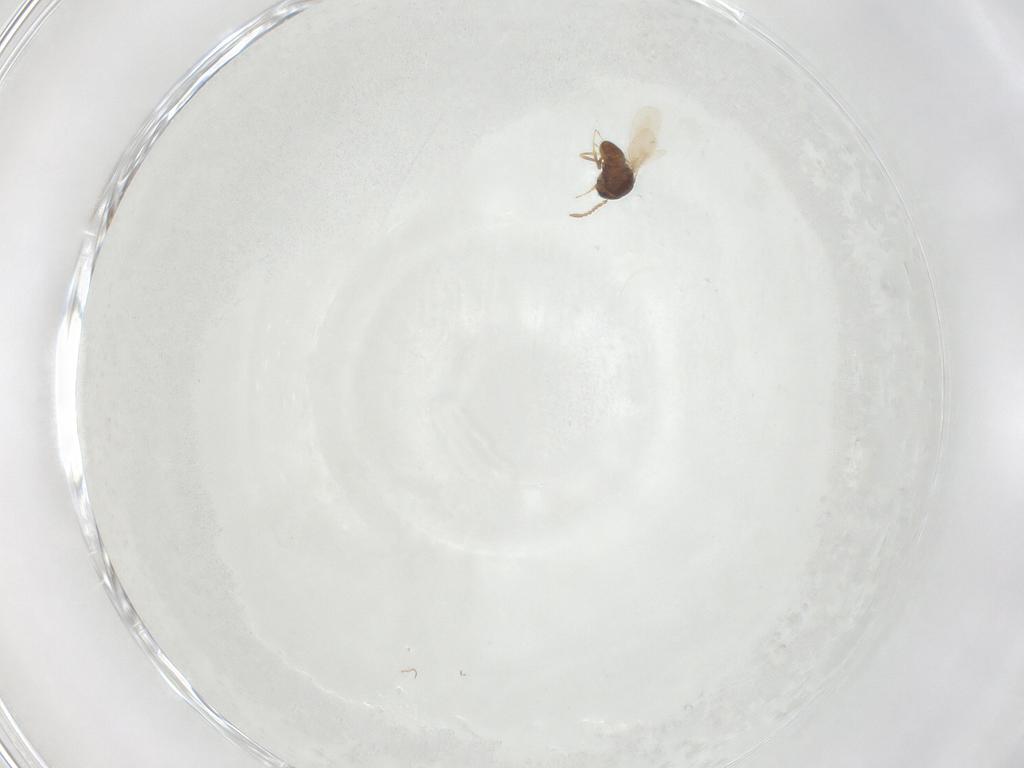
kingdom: Animalia
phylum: Arthropoda
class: Insecta
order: Hymenoptera
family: Scelionidae
